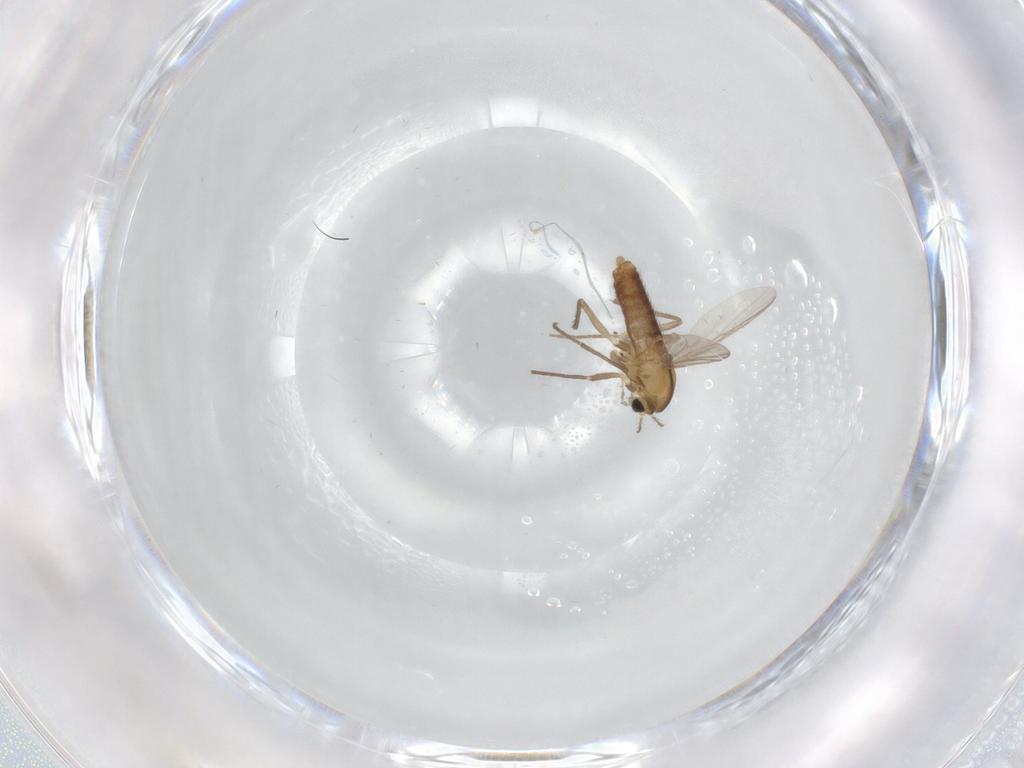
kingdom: Animalia
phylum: Arthropoda
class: Insecta
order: Diptera
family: Chironomidae
